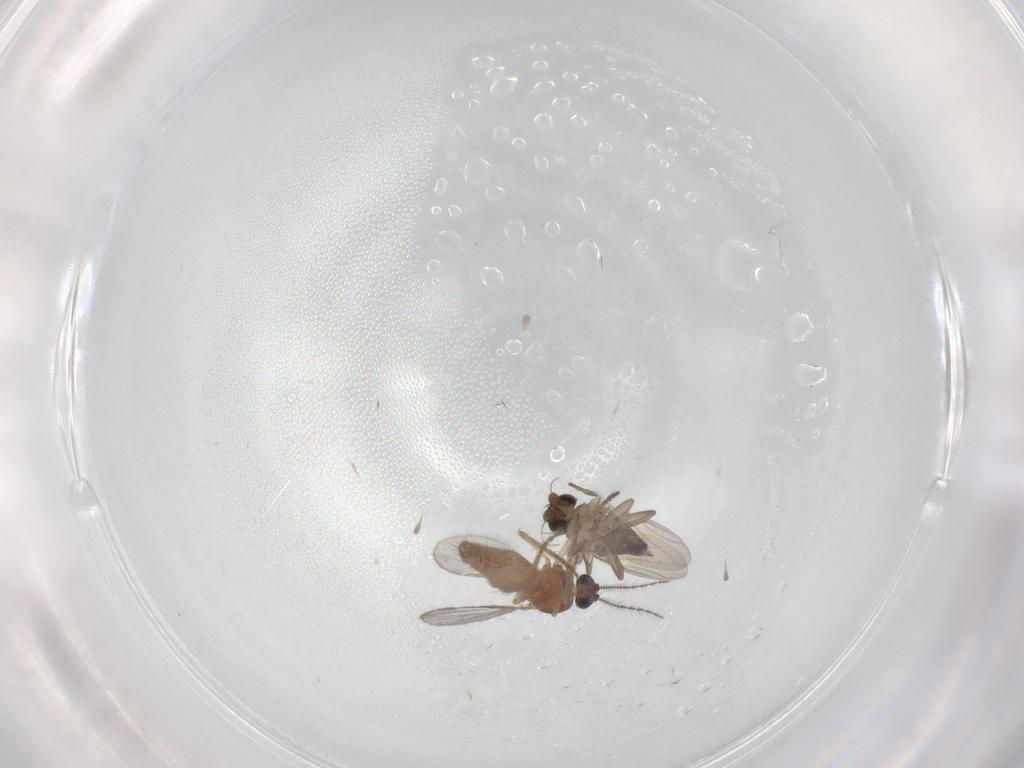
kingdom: Animalia
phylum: Arthropoda
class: Insecta
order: Diptera
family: Ceratopogonidae
